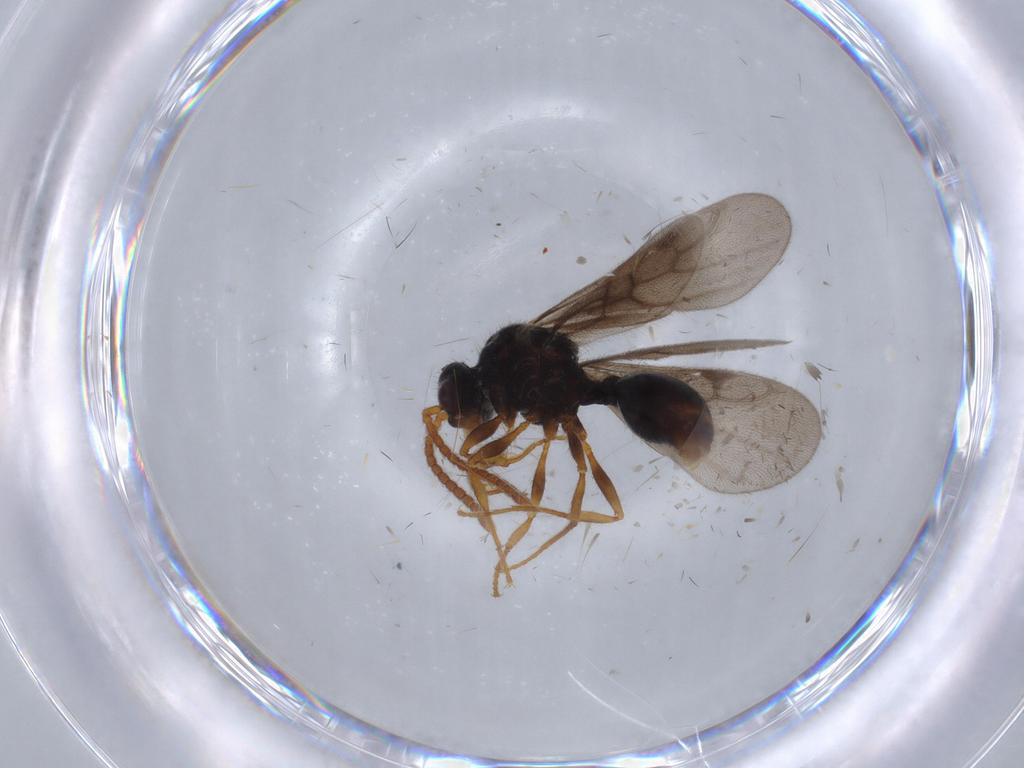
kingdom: Animalia
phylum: Arthropoda
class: Insecta
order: Hymenoptera
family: Formicidae
